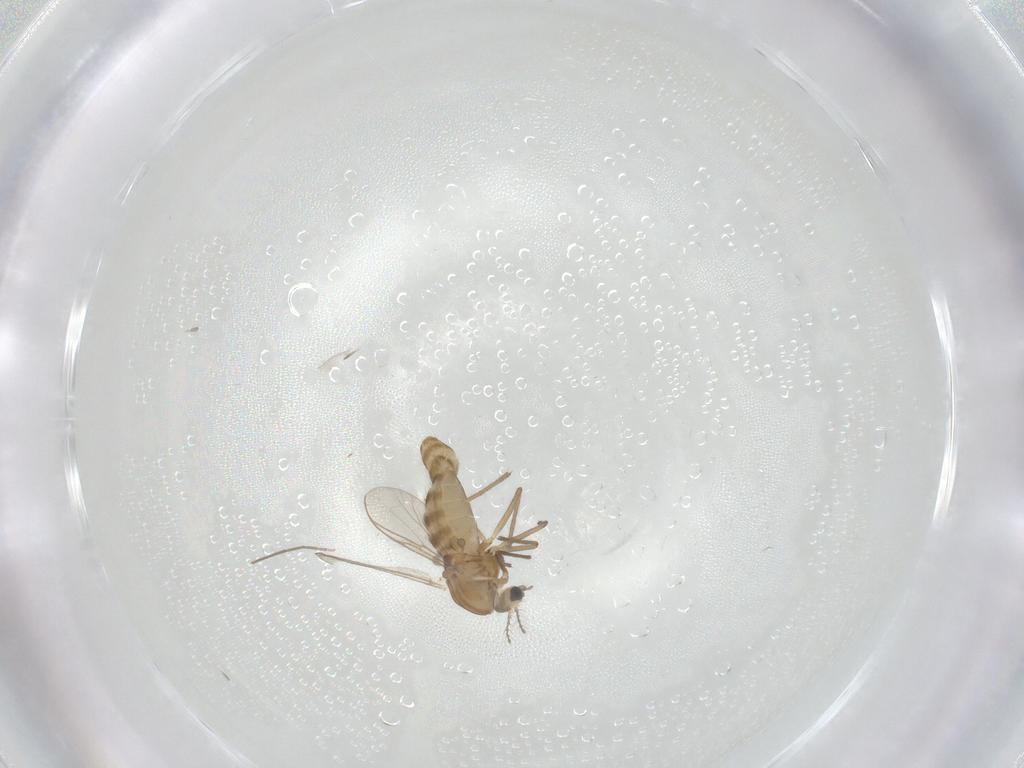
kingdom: Animalia
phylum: Arthropoda
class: Insecta
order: Diptera
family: Chironomidae
